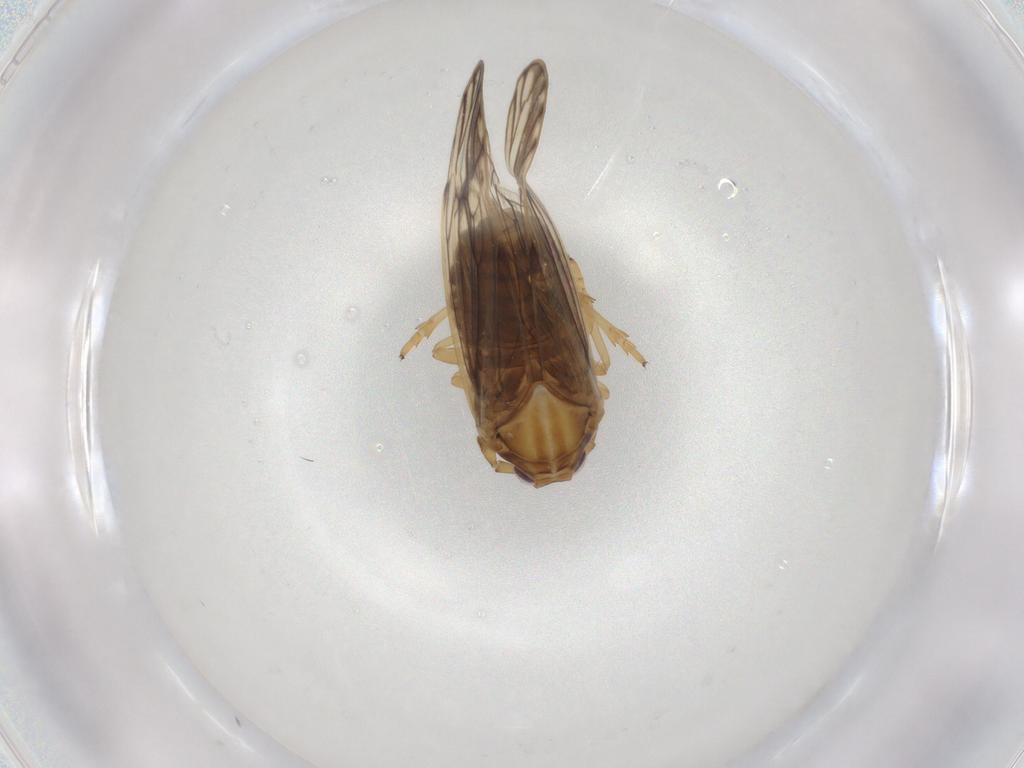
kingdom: Animalia
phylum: Arthropoda
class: Insecta
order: Hemiptera
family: Delphacidae
